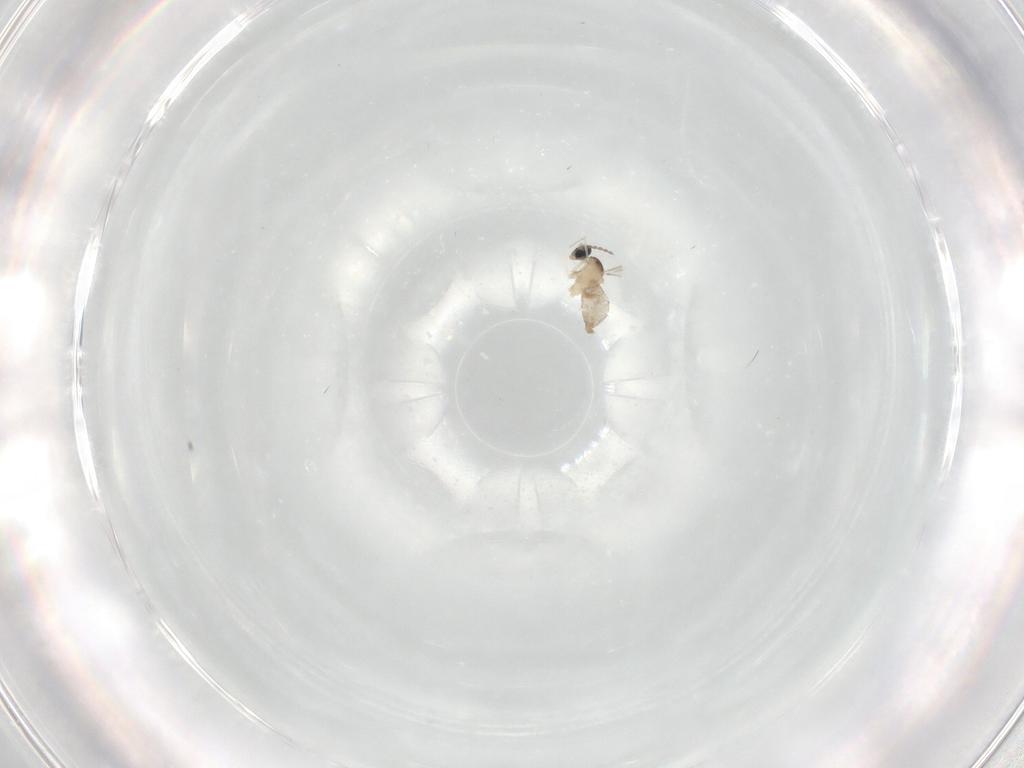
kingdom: Animalia
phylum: Arthropoda
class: Insecta
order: Diptera
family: Cecidomyiidae
